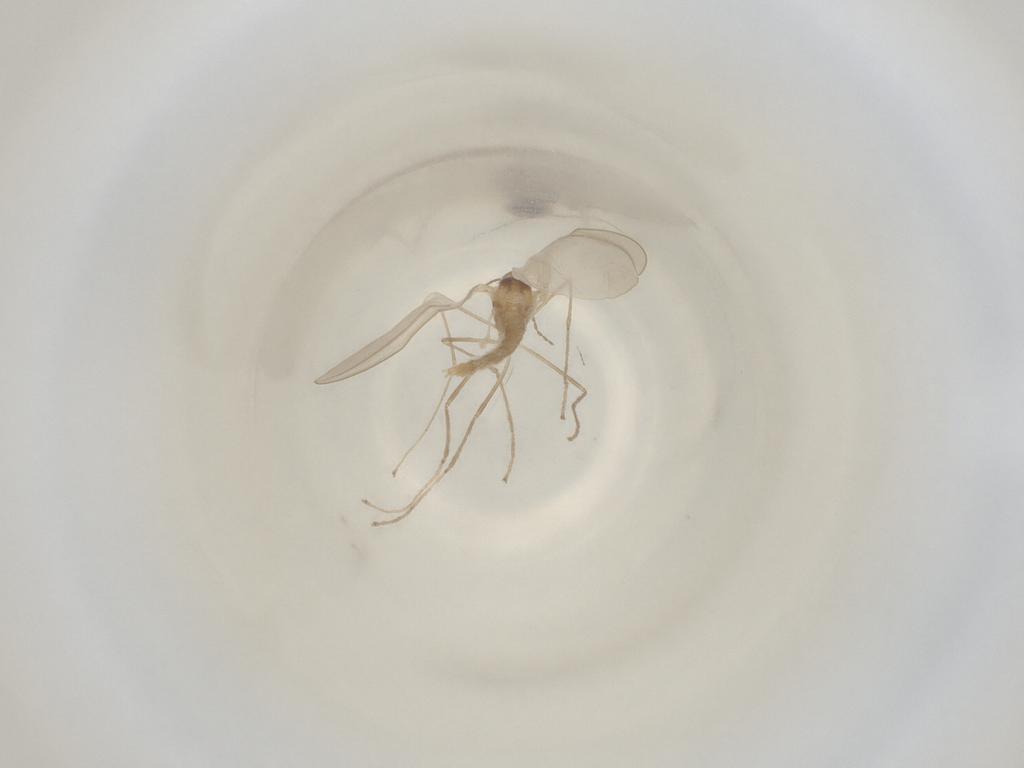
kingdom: Animalia
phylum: Arthropoda
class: Insecta
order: Diptera
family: Cecidomyiidae
